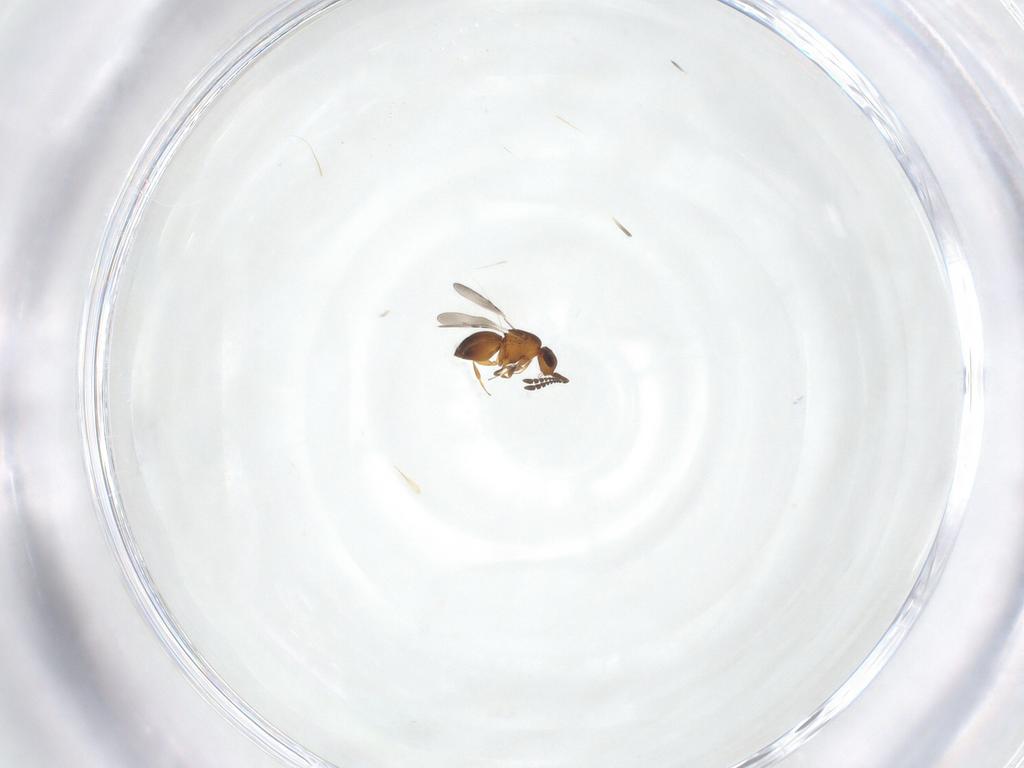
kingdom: Animalia
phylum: Arthropoda
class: Insecta
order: Hymenoptera
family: Ceraphronidae
